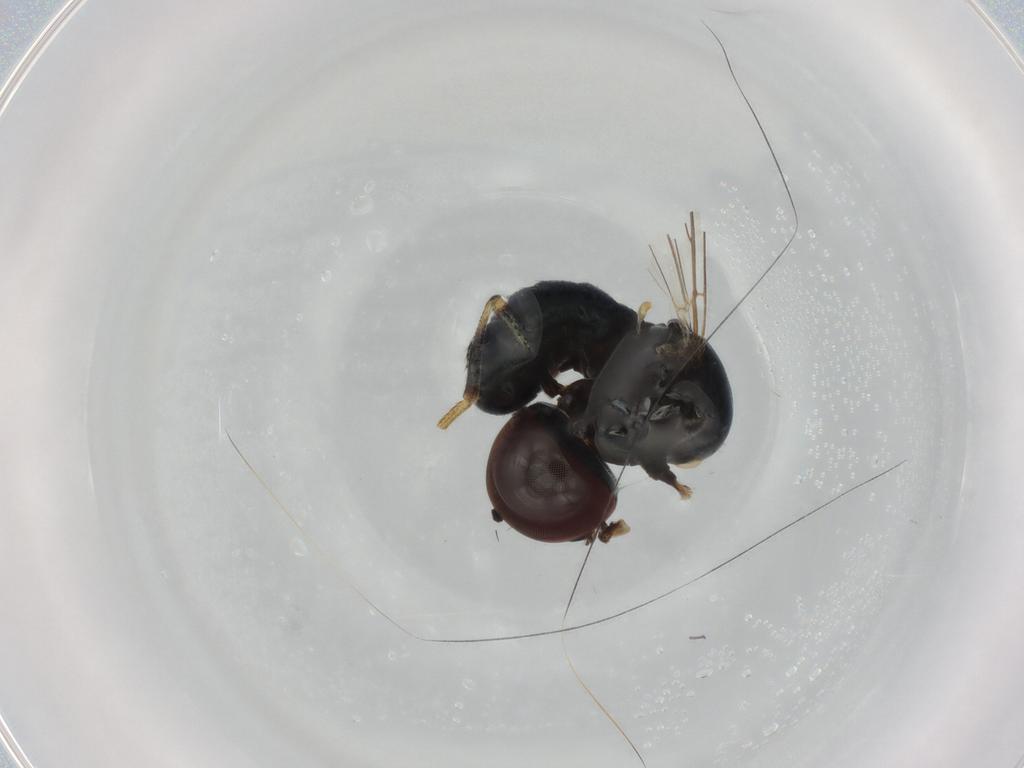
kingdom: Animalia
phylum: Arthropoda
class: Insecta
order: Diptera
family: Pipunculidae
